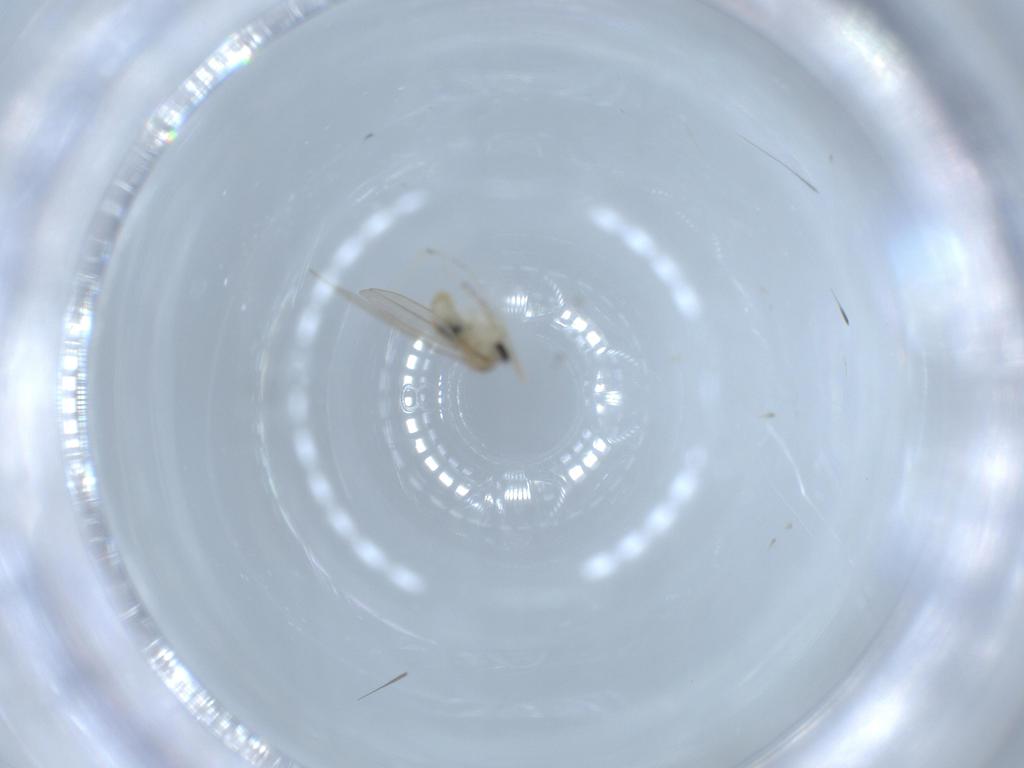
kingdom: Animalia
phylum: Arthropoda
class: Insecta
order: Diptera
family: Cecidomyiidae
